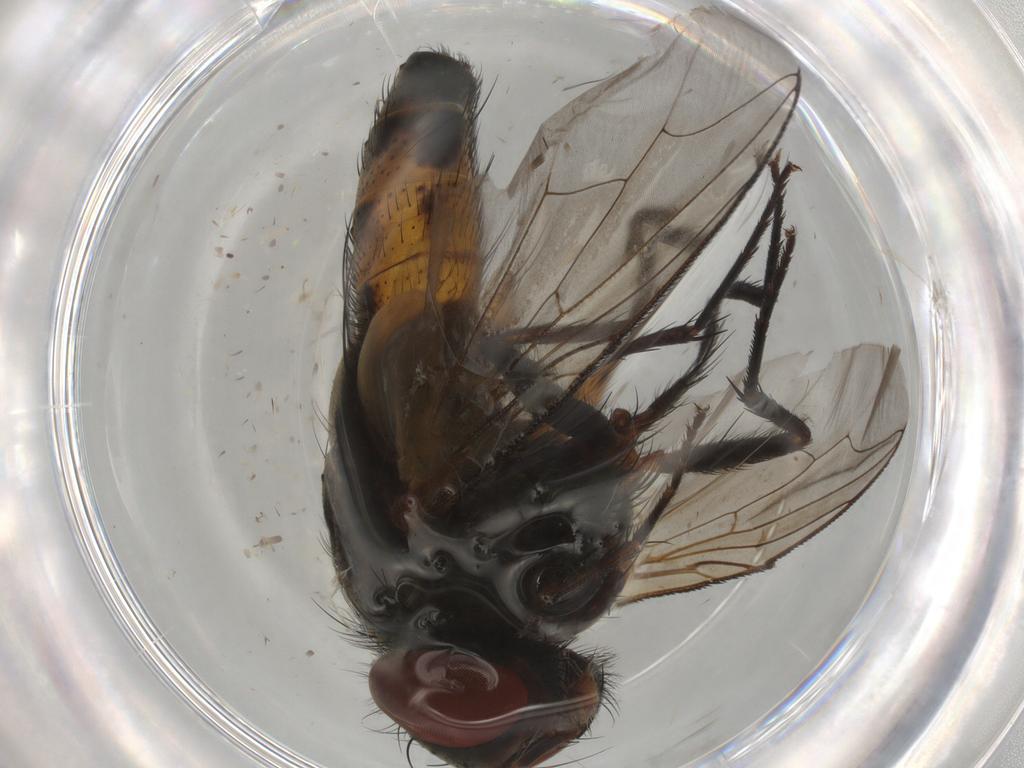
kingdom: Animalia
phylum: Arthropoda
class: Insecta
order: Diptera
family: Sarcophagidae
